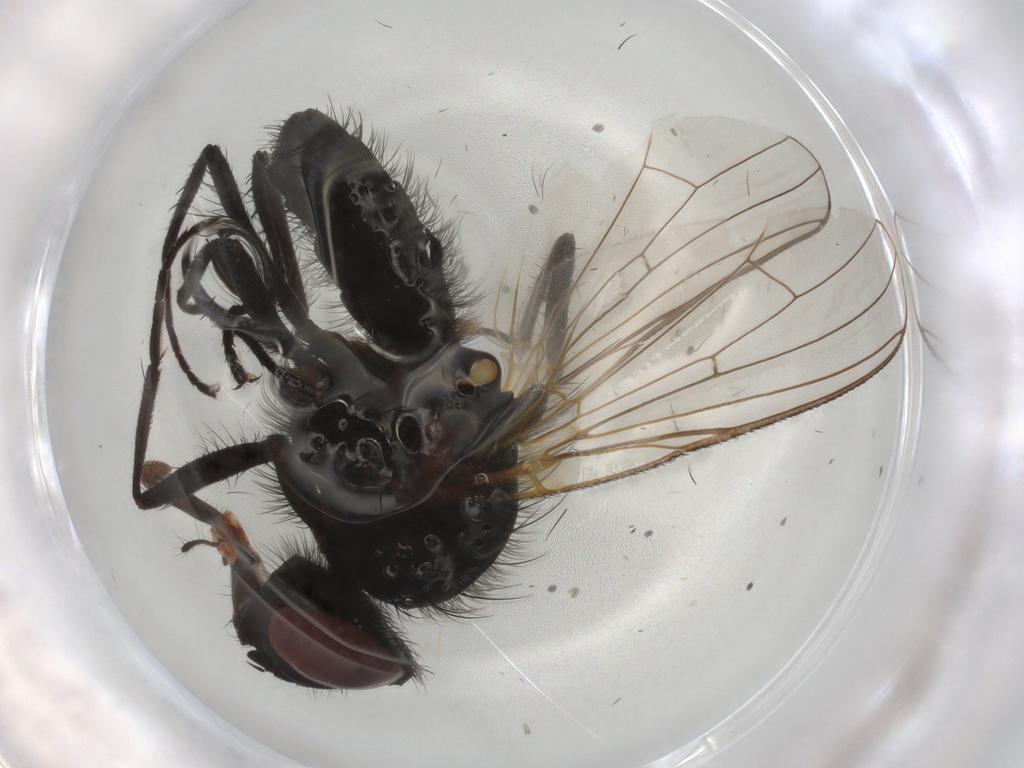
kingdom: Animalia
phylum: Arthropoda
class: Insecta
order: Diptera
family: Anthomyiidae
